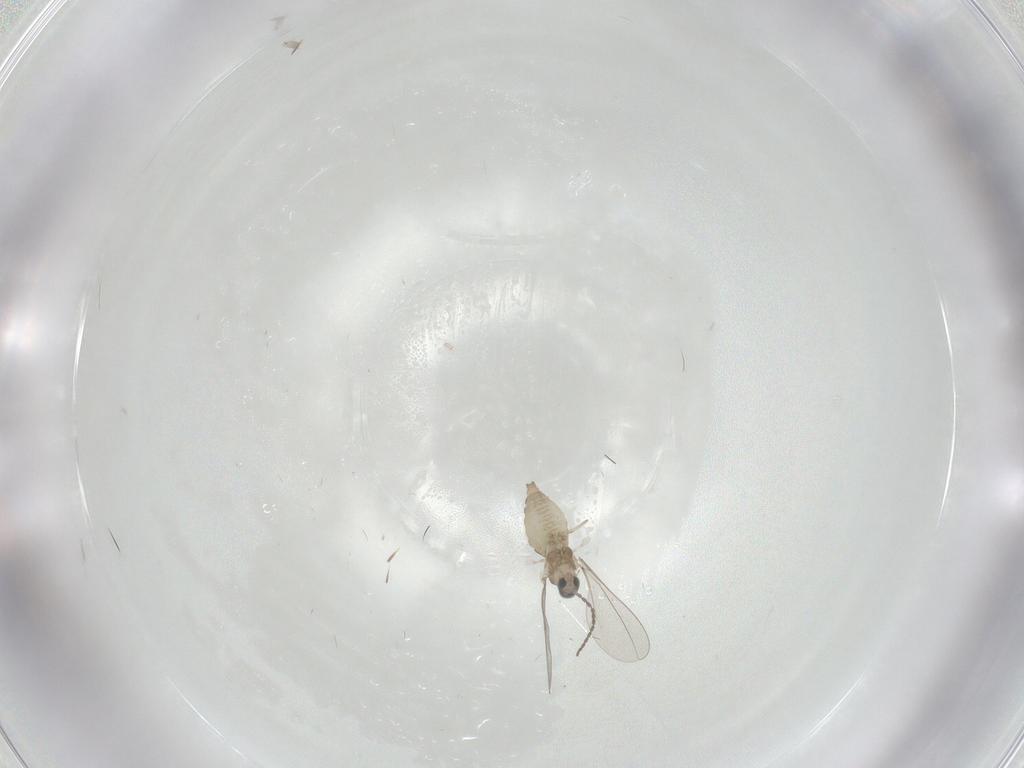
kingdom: Animalia
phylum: Arthropoda
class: Insecta
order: Diptera
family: Cecidomyiidae
